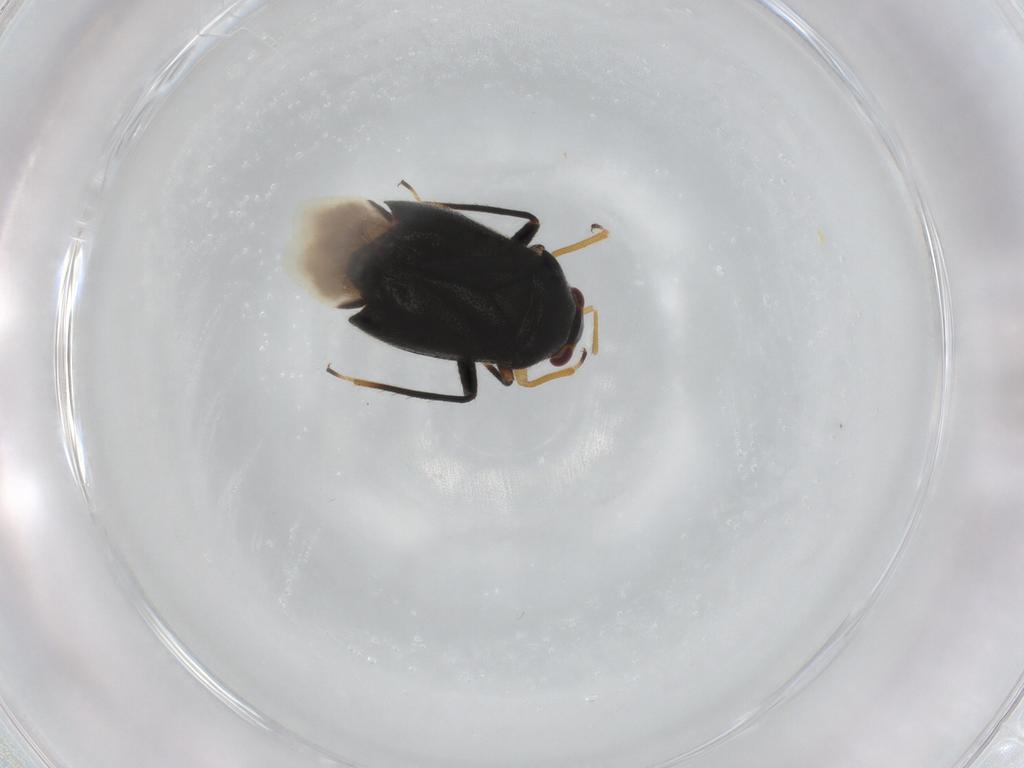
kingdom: Animalia
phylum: Arthropoda
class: Insecta
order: Hemiptera
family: Miridae
